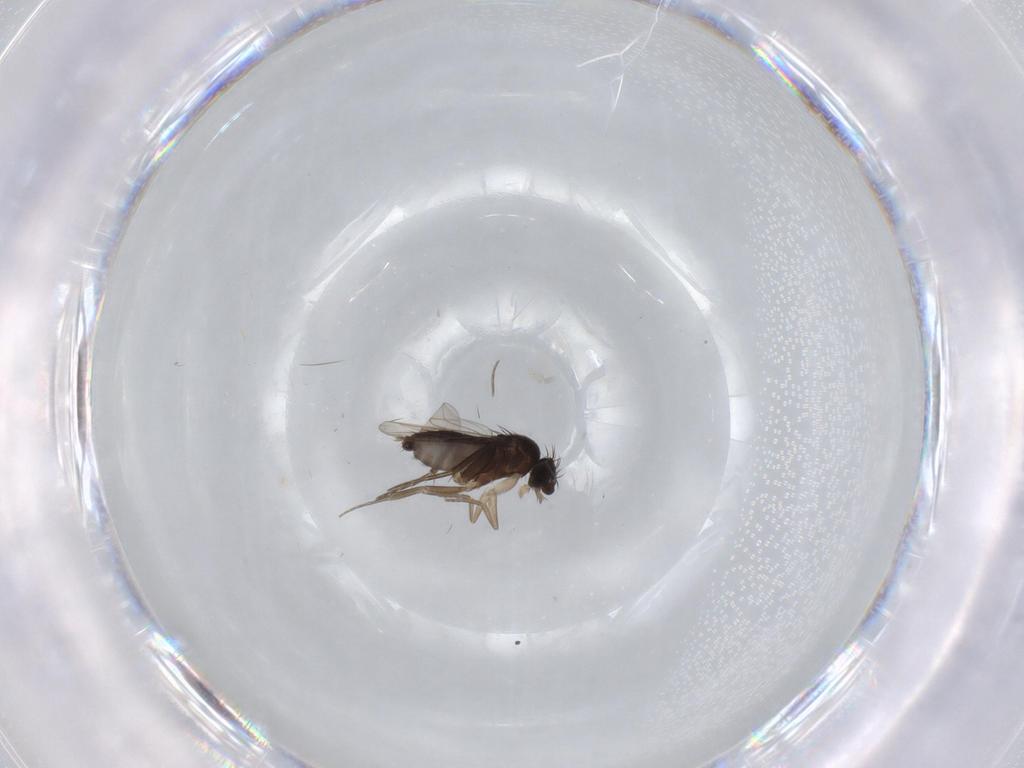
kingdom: Animalia
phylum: Arthropoda
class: Insecta
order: Diptera
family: Phoridae
